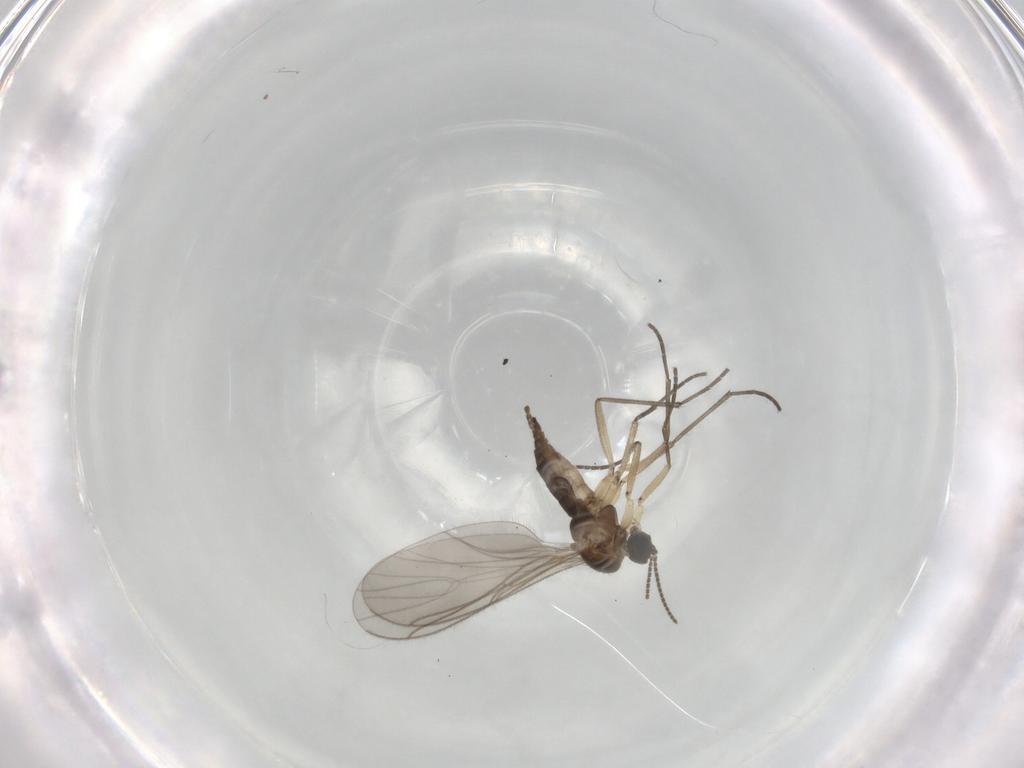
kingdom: Animalia
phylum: Arthropoda
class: Insecta
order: Diptera
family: Sciaridae
